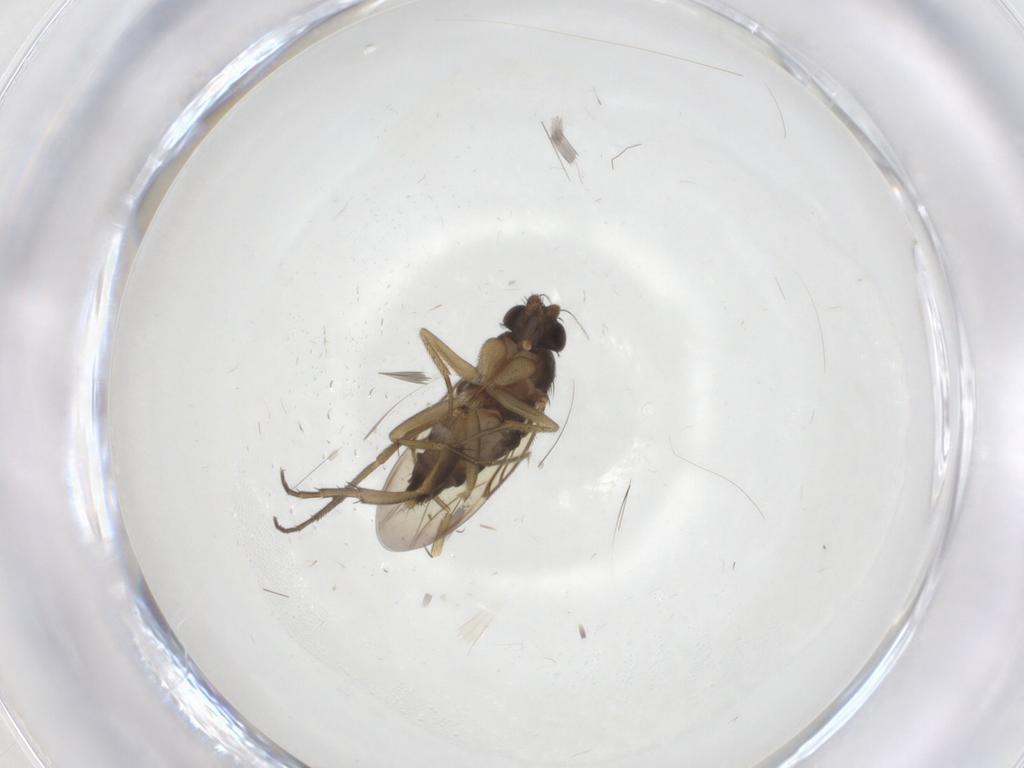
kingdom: Animalia
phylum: Arthropoda
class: Insecta
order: Diptera
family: Phoridae
